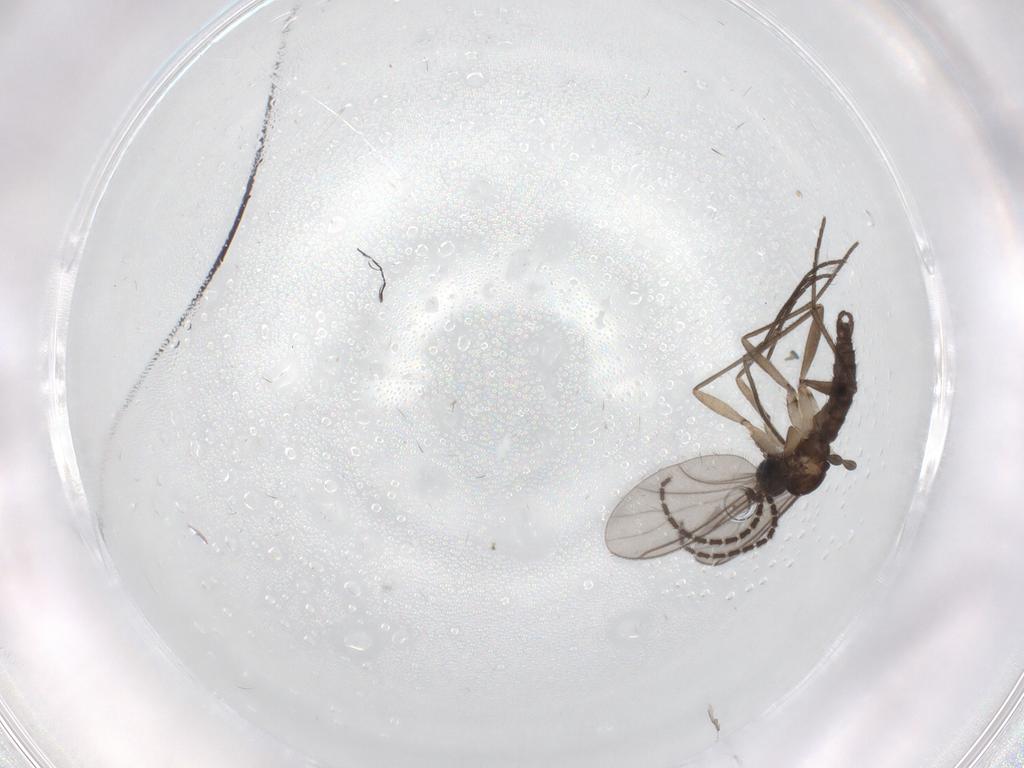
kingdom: Animalia
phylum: Arthropoda
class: Insecta
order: Diptera
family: Sciaridae
